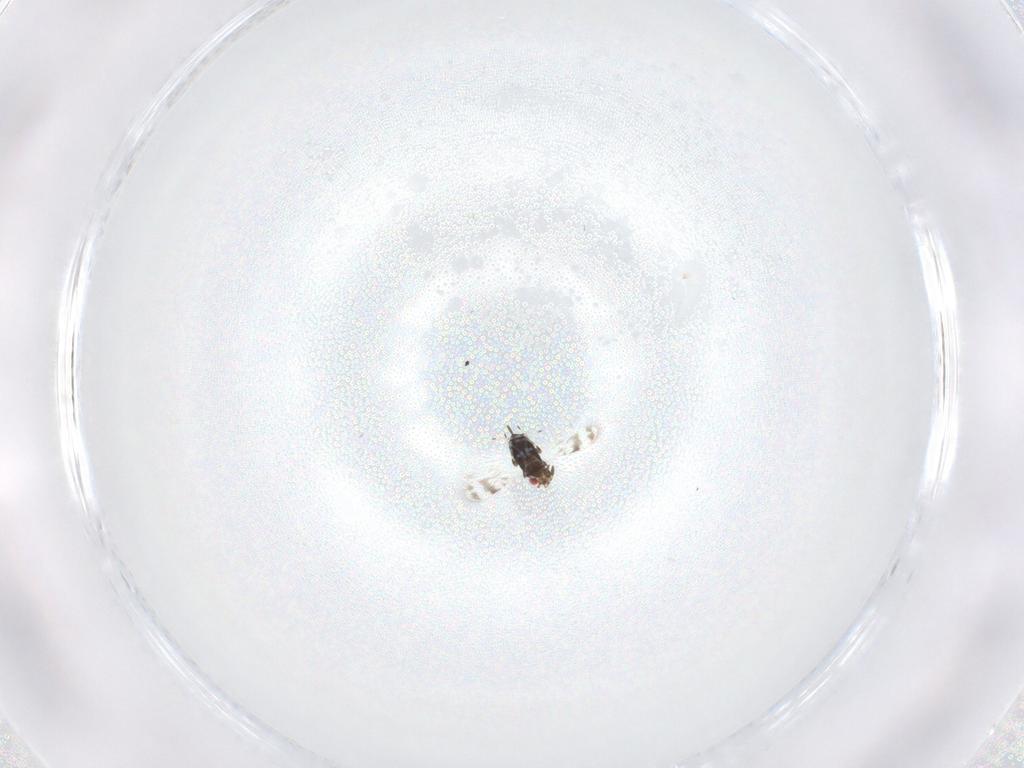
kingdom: Animalia
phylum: Arthropoda
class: Insecta
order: Hymenoptera
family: Azotidae
